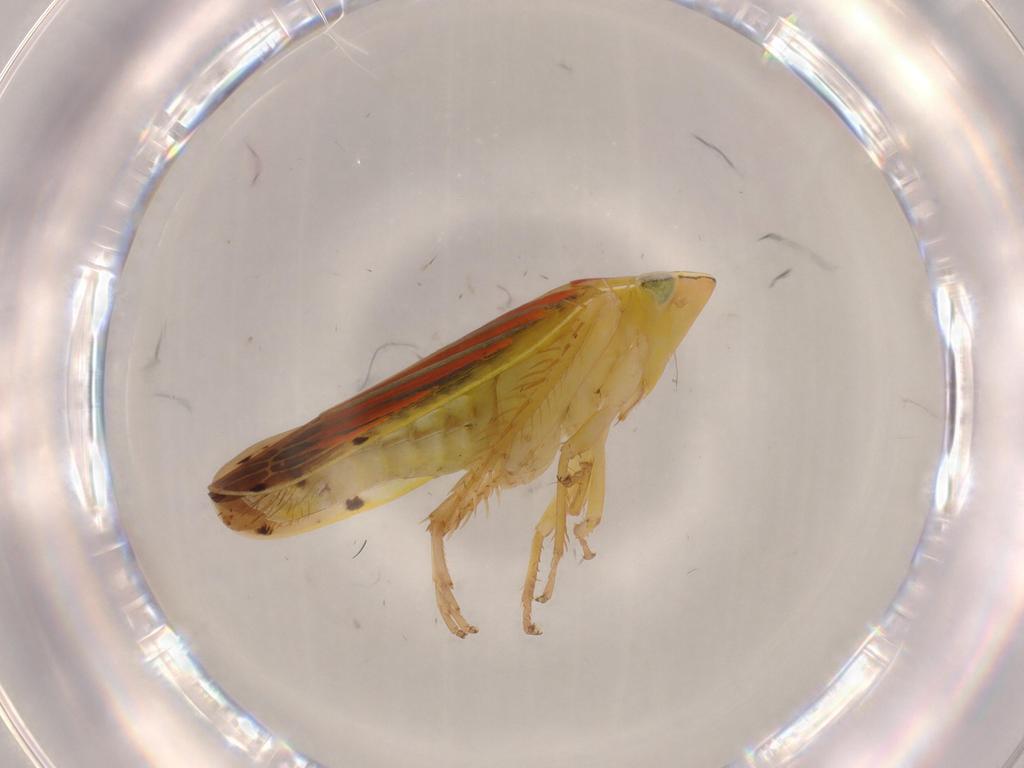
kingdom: Animalia
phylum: Arthropoda
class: Insecta
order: Hemiptera
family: Cicadellidae
